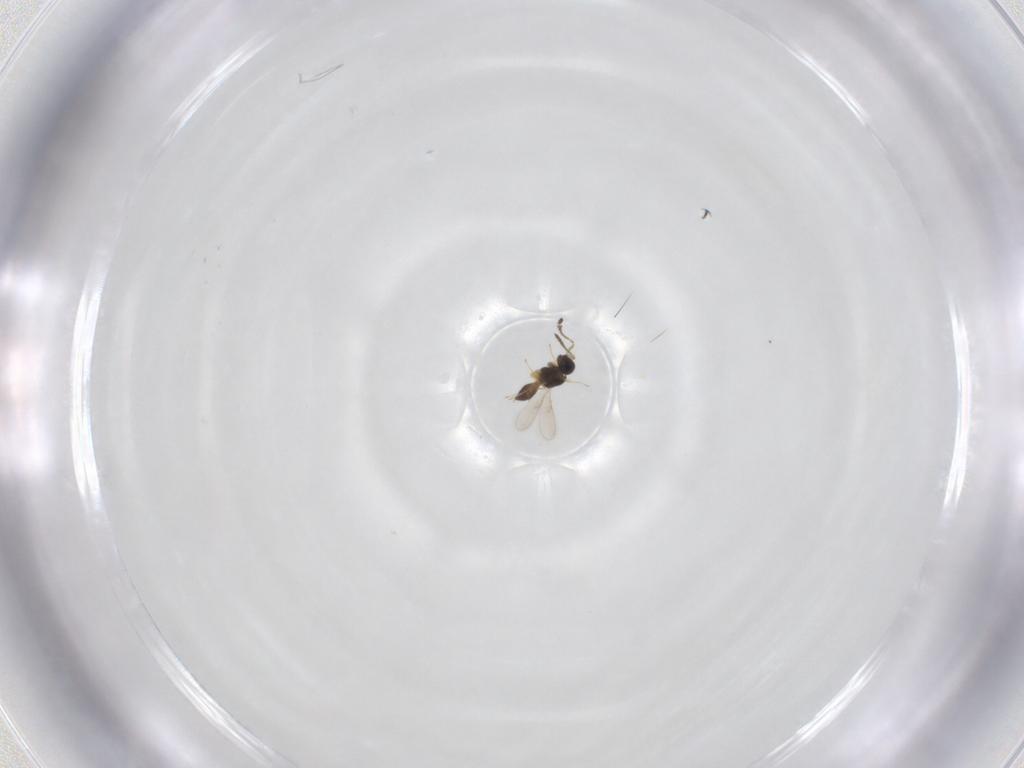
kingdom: Animalia
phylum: Arthropoda
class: Insecta
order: Hymenoptera
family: Scelionidae
